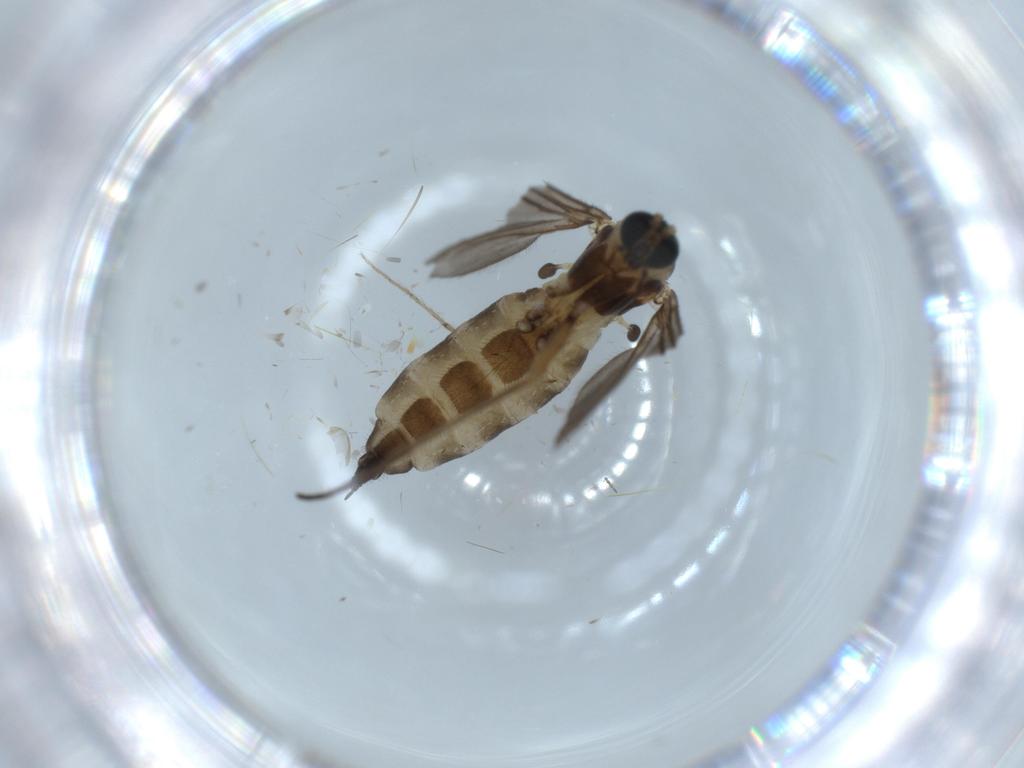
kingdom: Animalia
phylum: Arthropoda
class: Insecta
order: Diptera
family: Sciaridae
